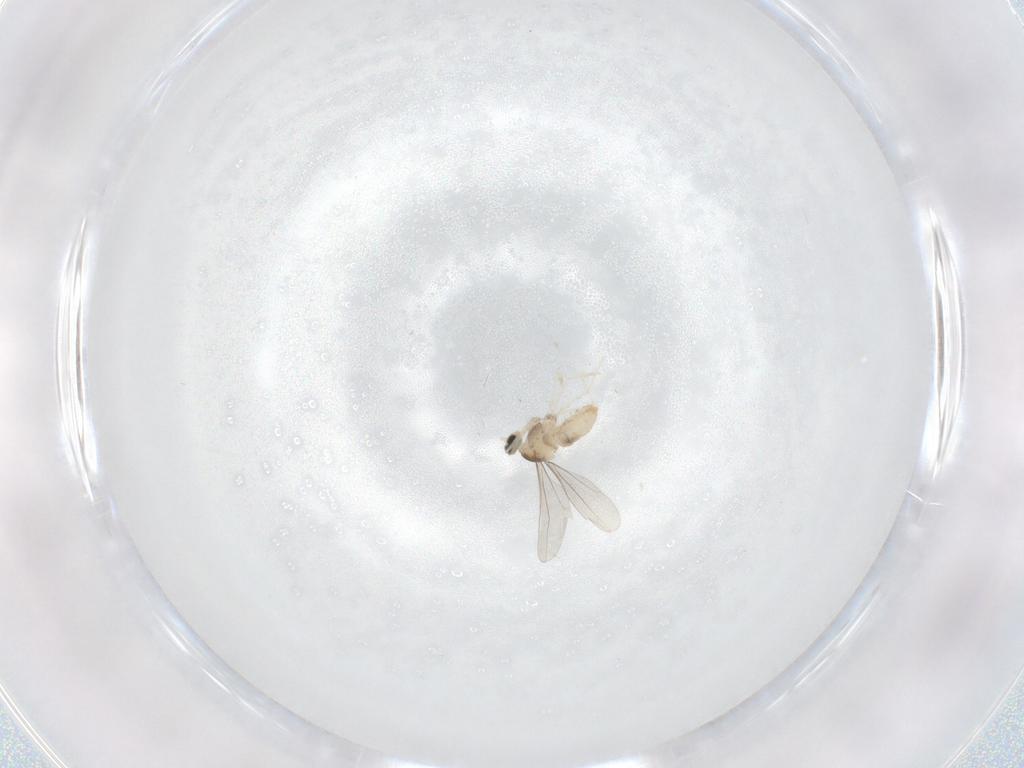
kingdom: Animalia
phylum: Arthropoda
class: Insecta
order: Diptera
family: Cecidomyiidae
